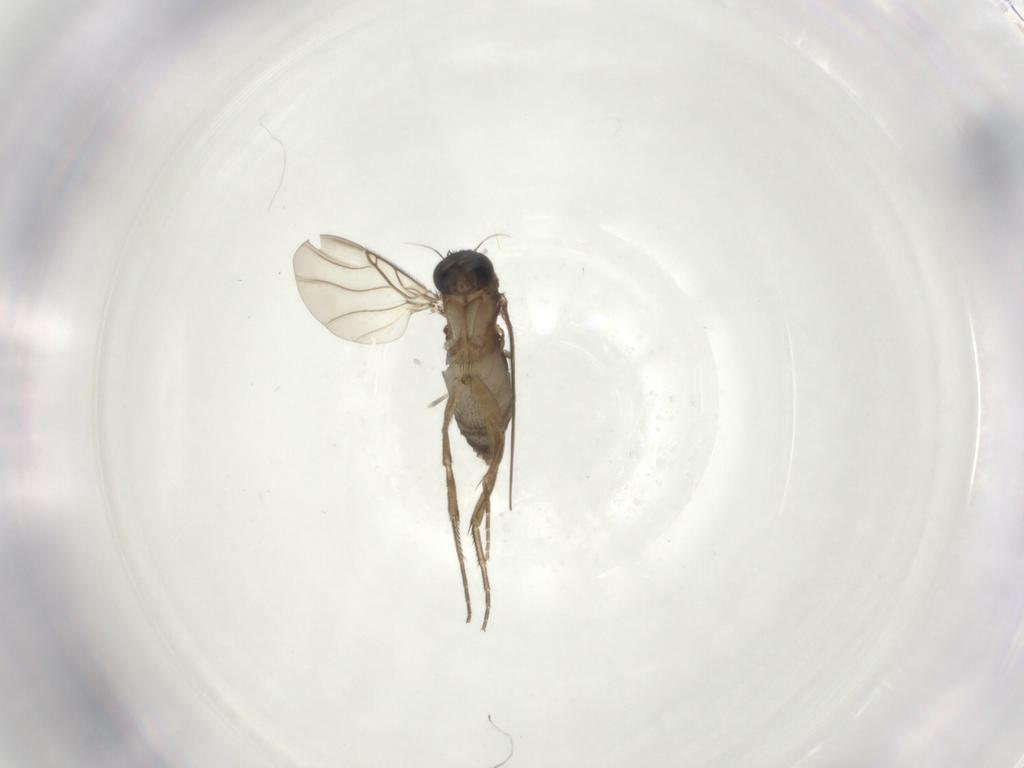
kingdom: Animalia
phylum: Arthropoda
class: Insecta
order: Diptera
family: Phoridae
